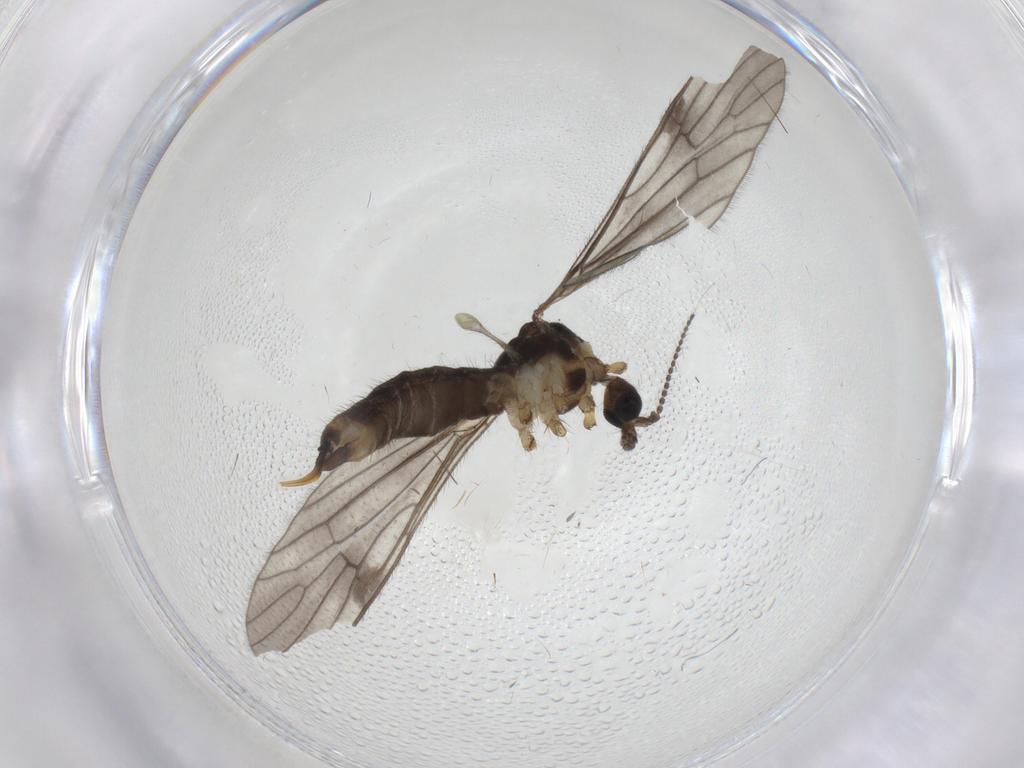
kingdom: Animalia
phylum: Arthropoda
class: Insecta
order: Diptera
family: Limoniidae
